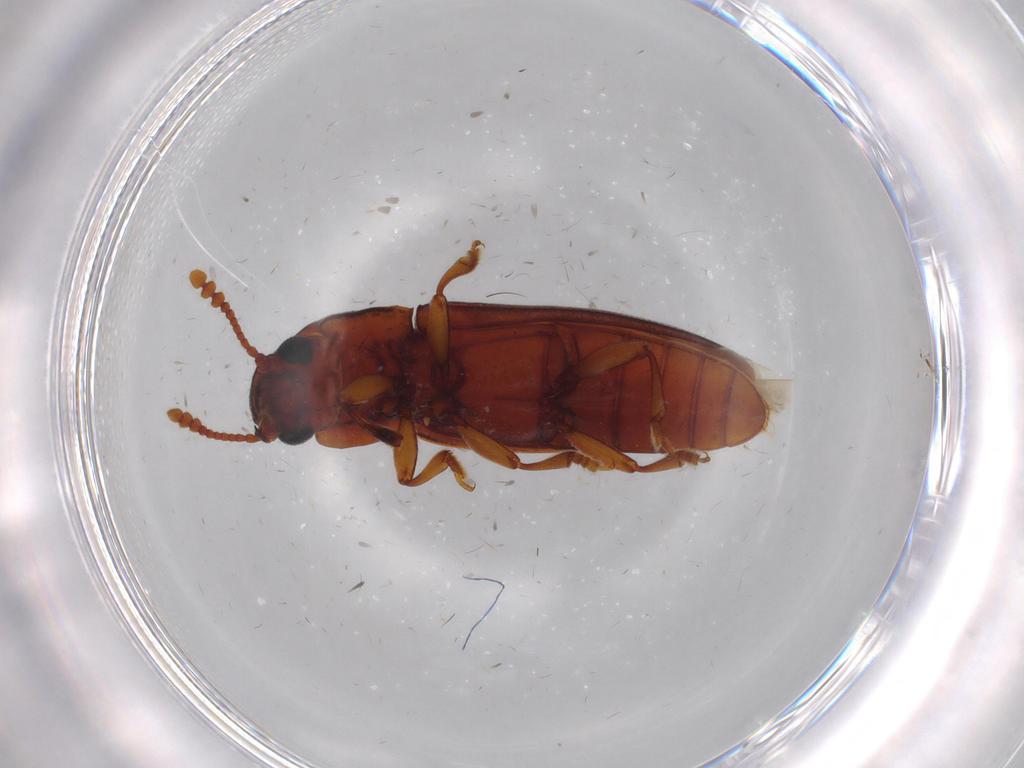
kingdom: Animalia
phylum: Arthropoda
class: Insecta
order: Coleoptera
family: Erotylidae
